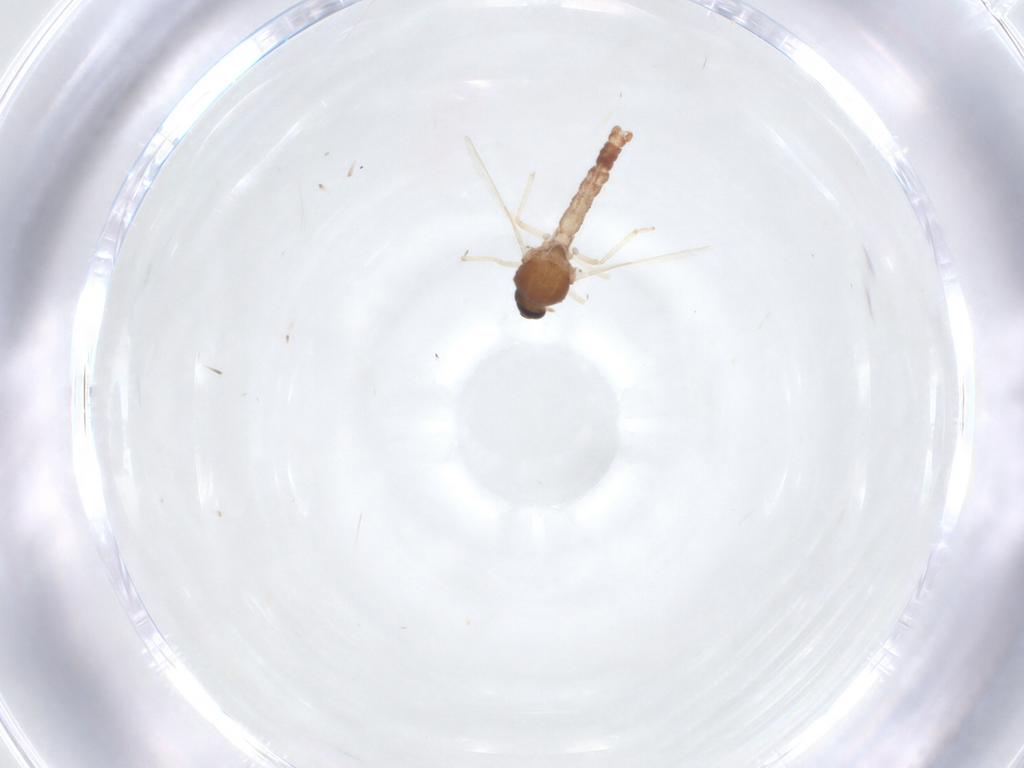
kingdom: Animalia
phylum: Arthropoda
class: Insecta
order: Diptera
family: Ceratopogonidae
